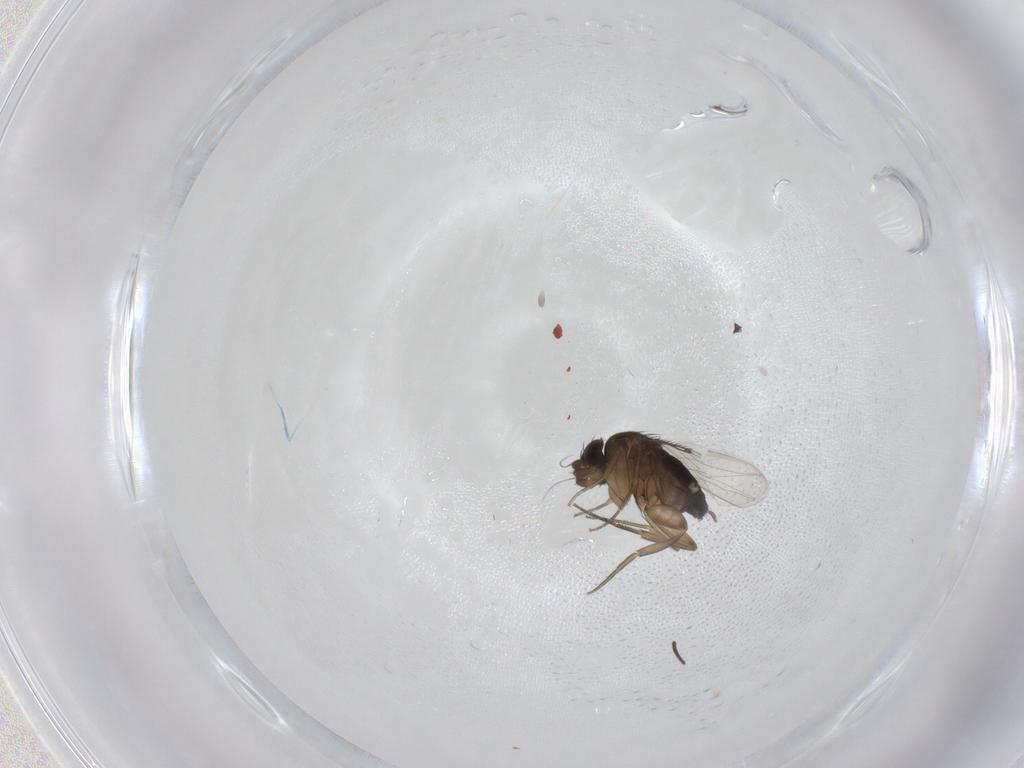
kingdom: Animalia
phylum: Arthropoda
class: Insecta
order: Diptera
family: Phoridae
